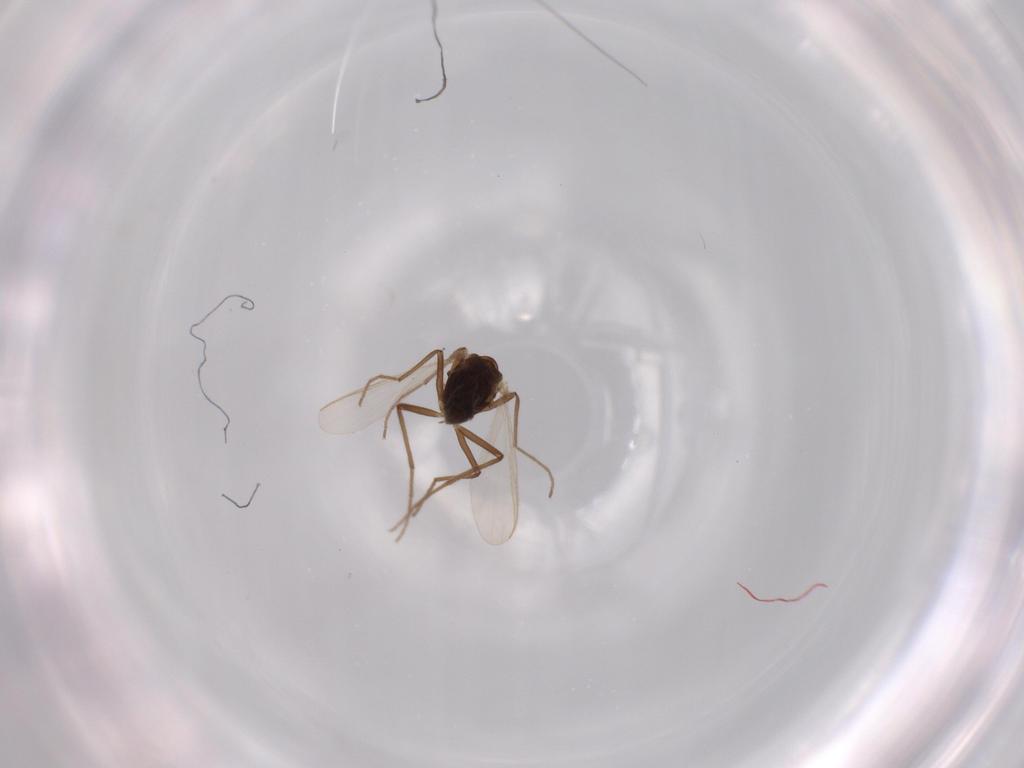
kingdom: Animalia
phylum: Arthropoda
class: Insecta
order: Diptera
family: Chironomidae
